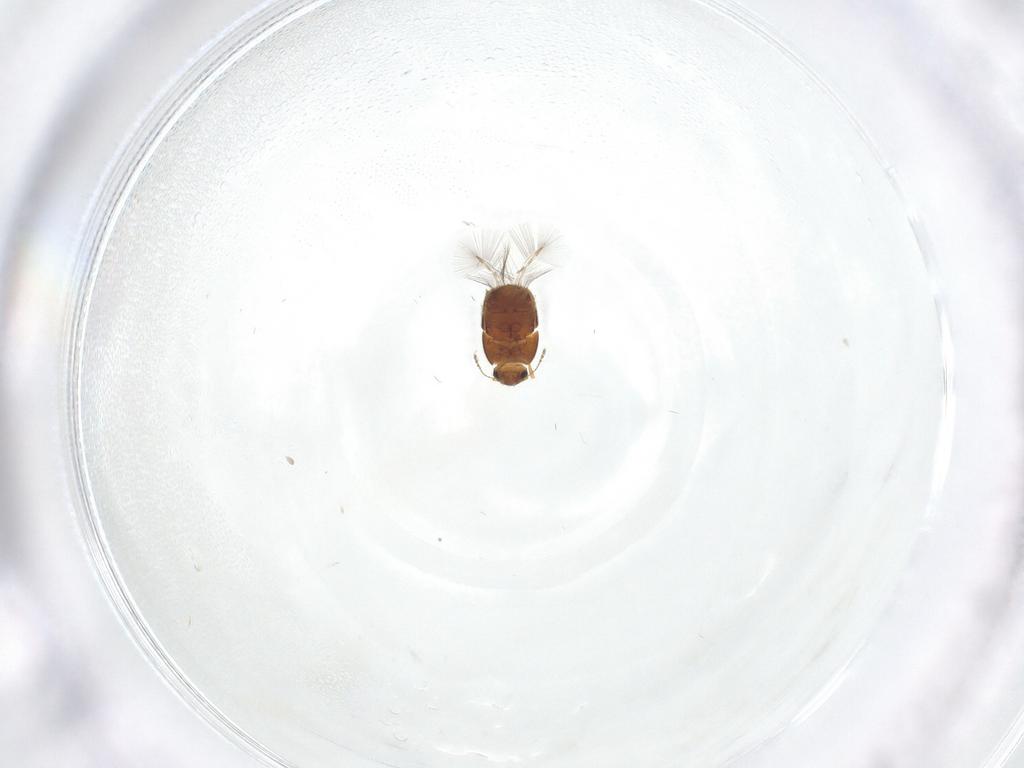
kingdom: Animalia
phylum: Arthropoda
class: Insecta
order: Coleoptera
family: Ptiliidae
